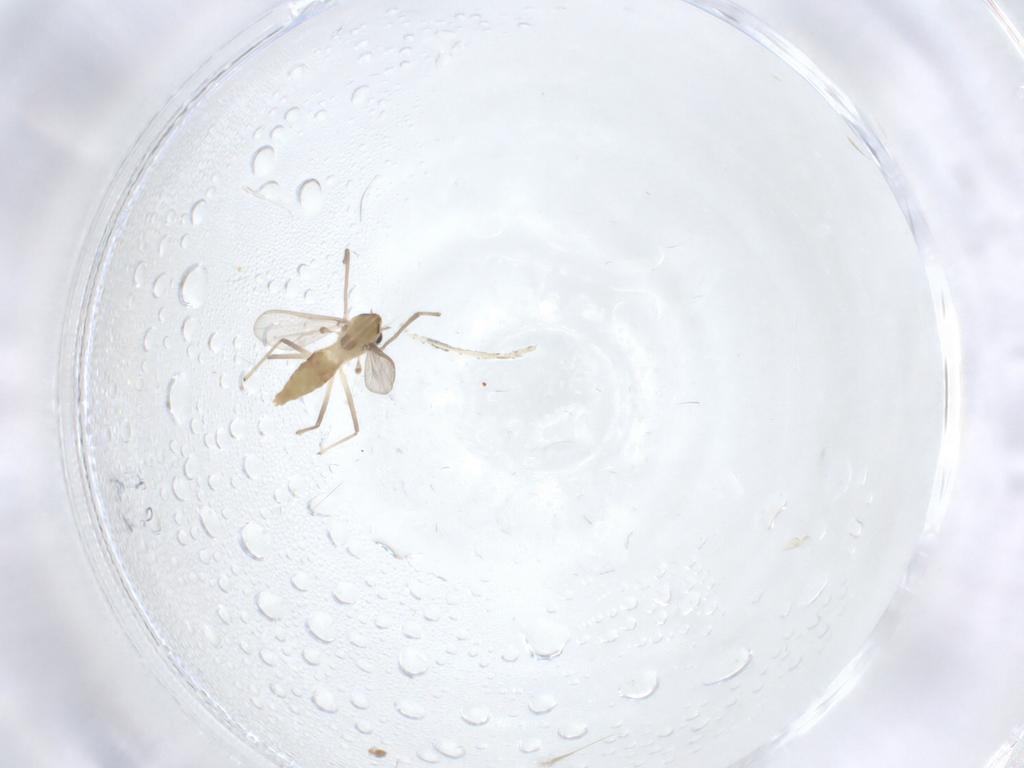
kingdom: Animalia
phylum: Arthropoda
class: Insecta
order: Diptera
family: Chironomidae
